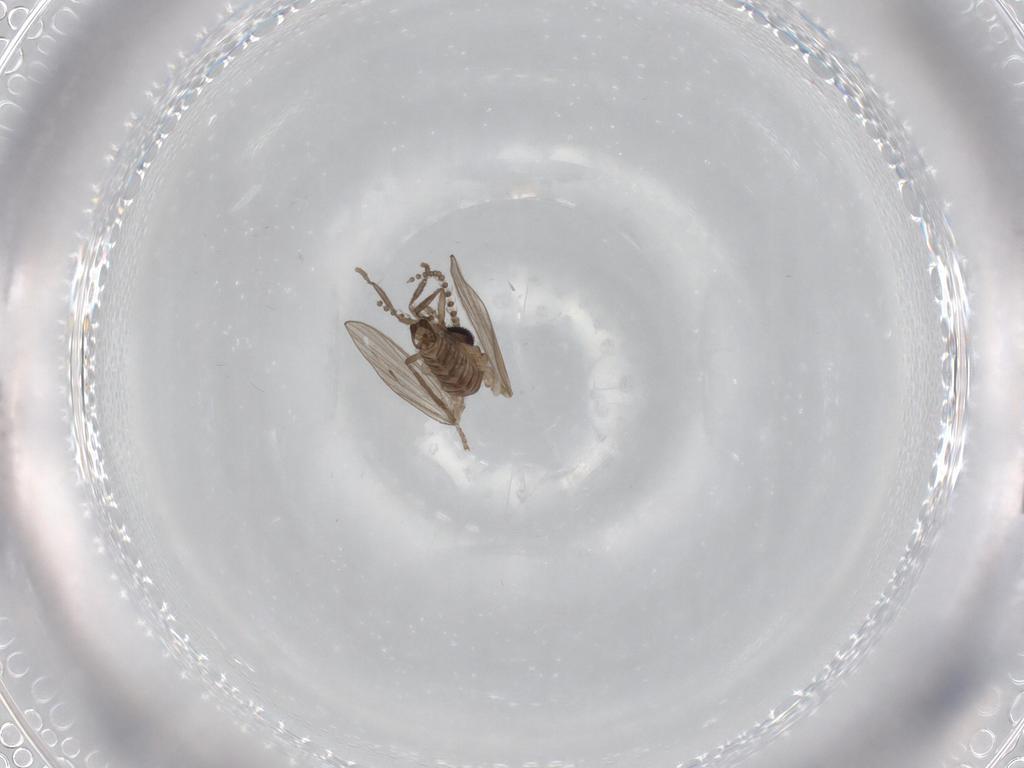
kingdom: Animalia
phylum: Arthropoda
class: Insecta
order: Diptera
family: Psychodidae
